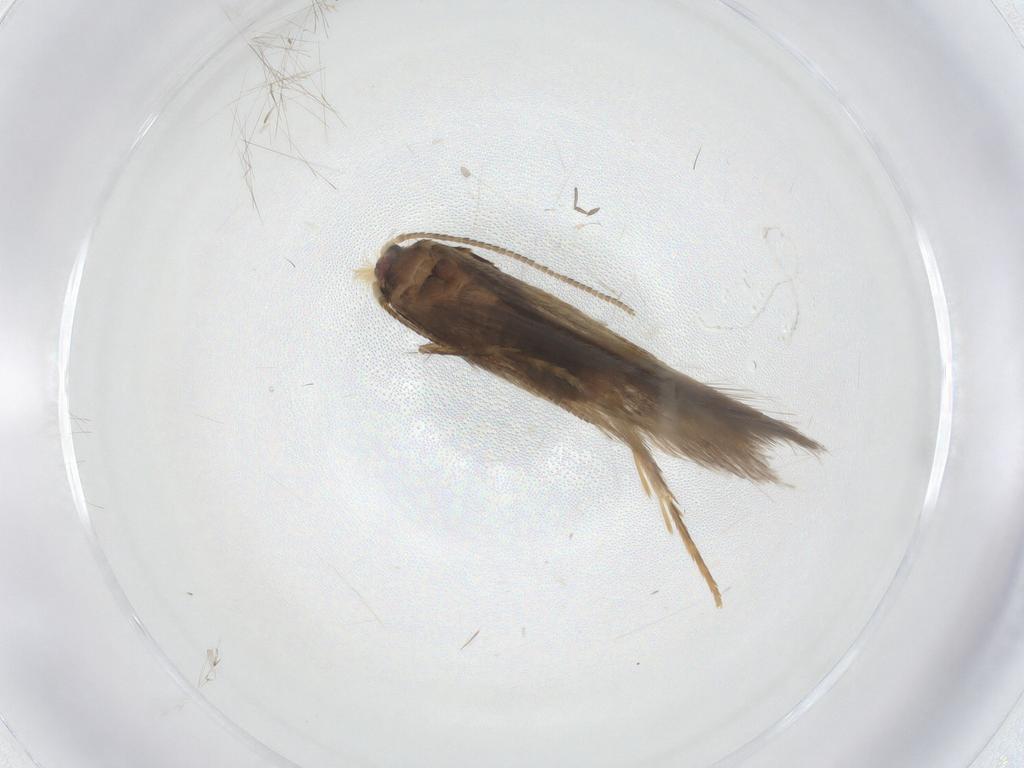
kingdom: Animalia
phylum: Arthropoda
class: Insecta
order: Lepidoptera
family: Nepticulidae
